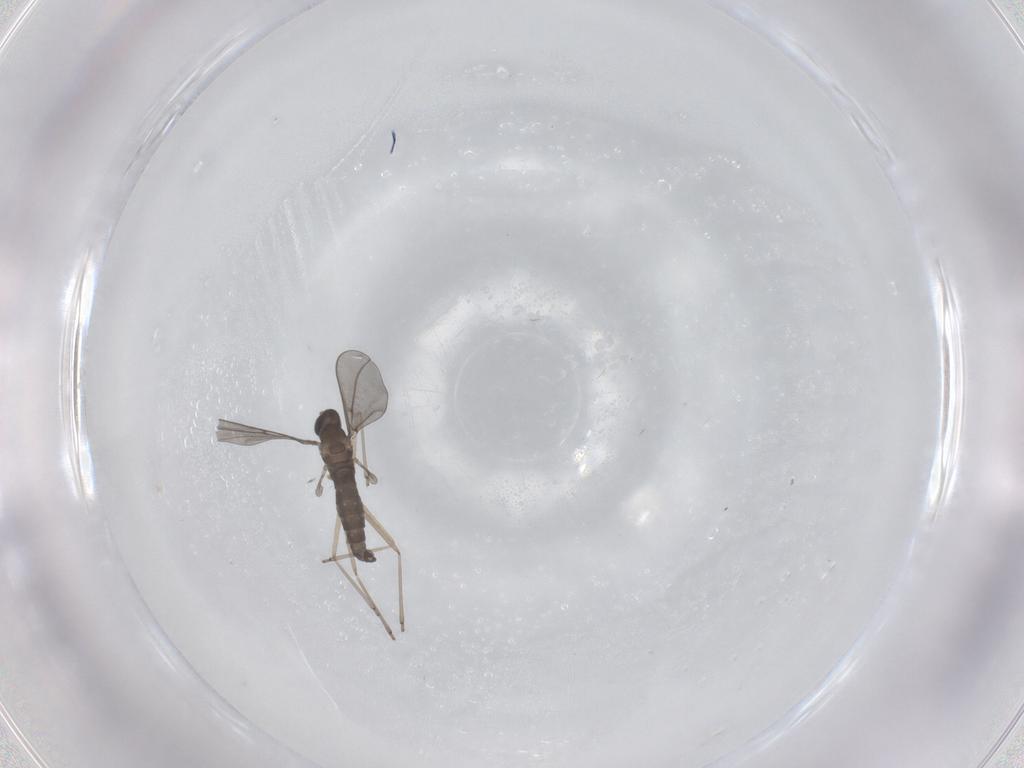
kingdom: Animalia
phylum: Arthropoda
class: Insecta
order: Diptera
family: Cecidomyiidae
